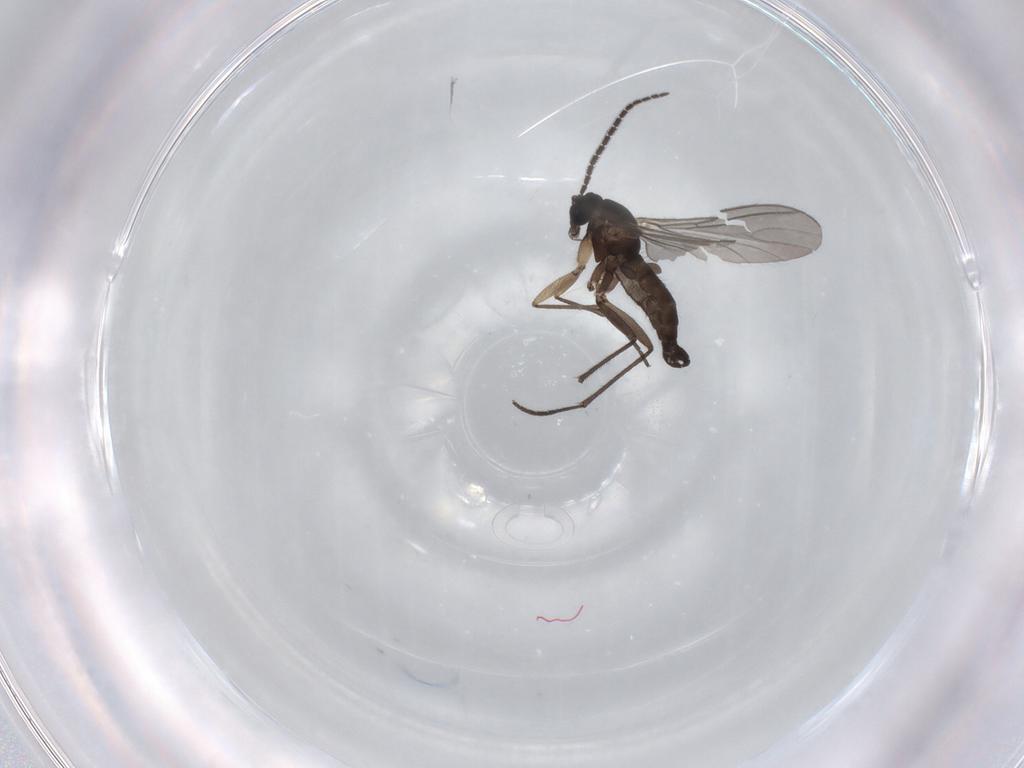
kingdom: Animalia
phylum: Arthropoda
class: Insecta
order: Diptera
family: Sciaridae
